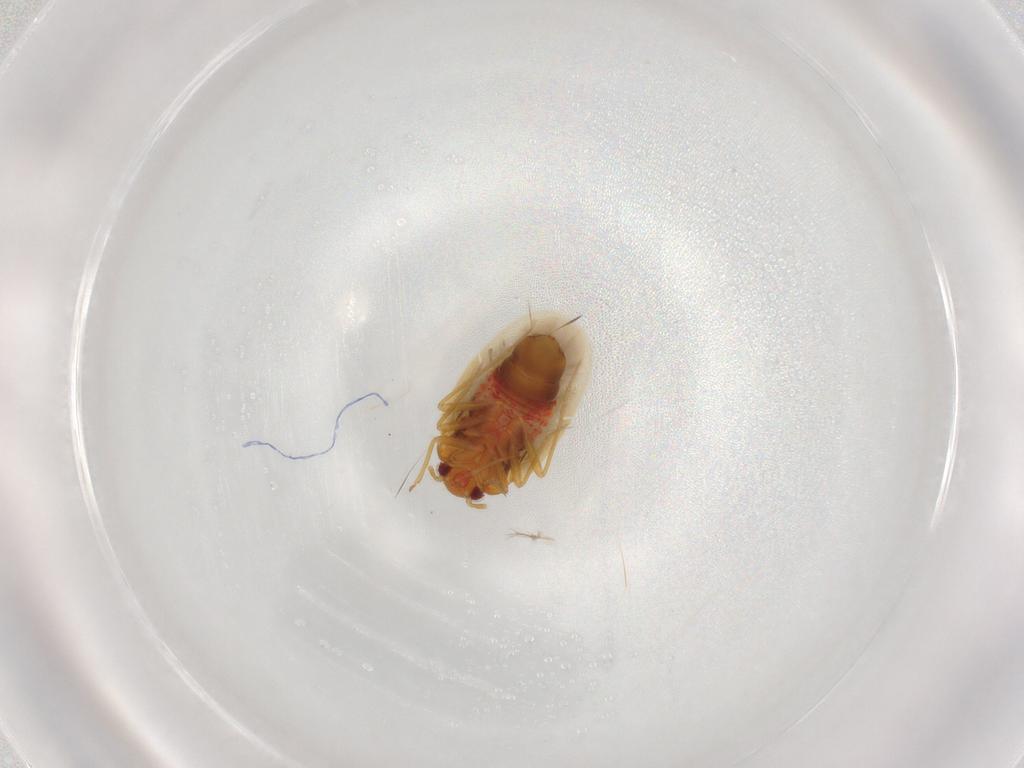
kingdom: Animalia
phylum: Arthropoda
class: Insecta
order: Hemiptera
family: Ceratocombidae
